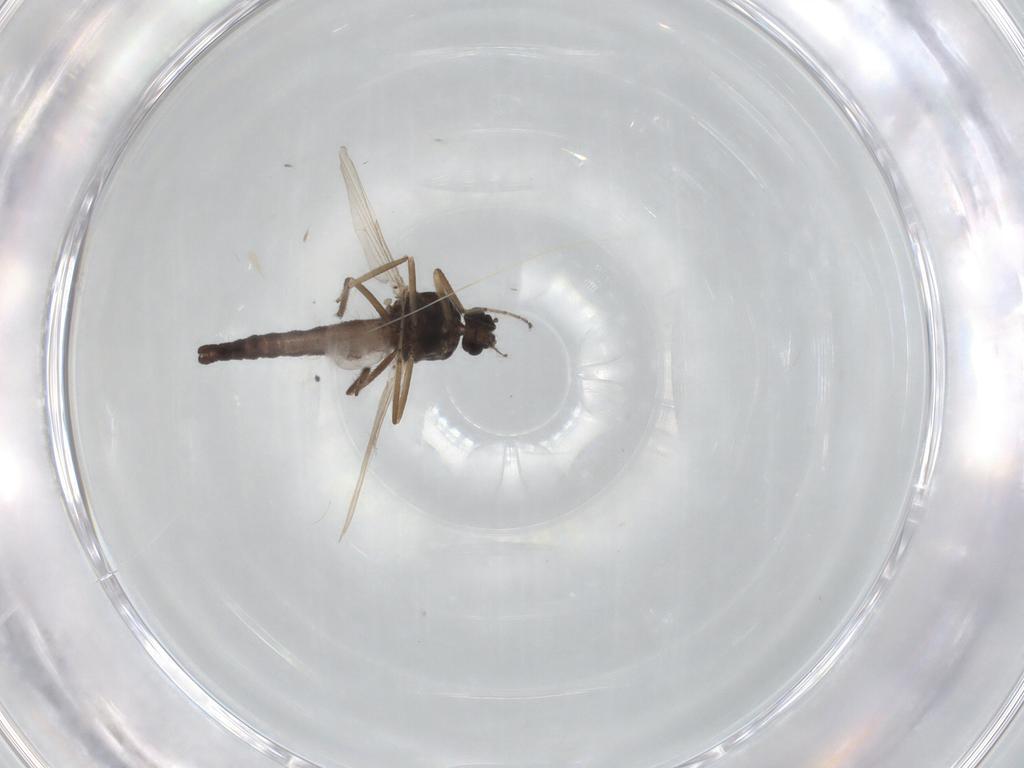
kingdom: Animalia
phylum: Arthropoda
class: Insecta
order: Diptera
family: Ceratopogonidae
